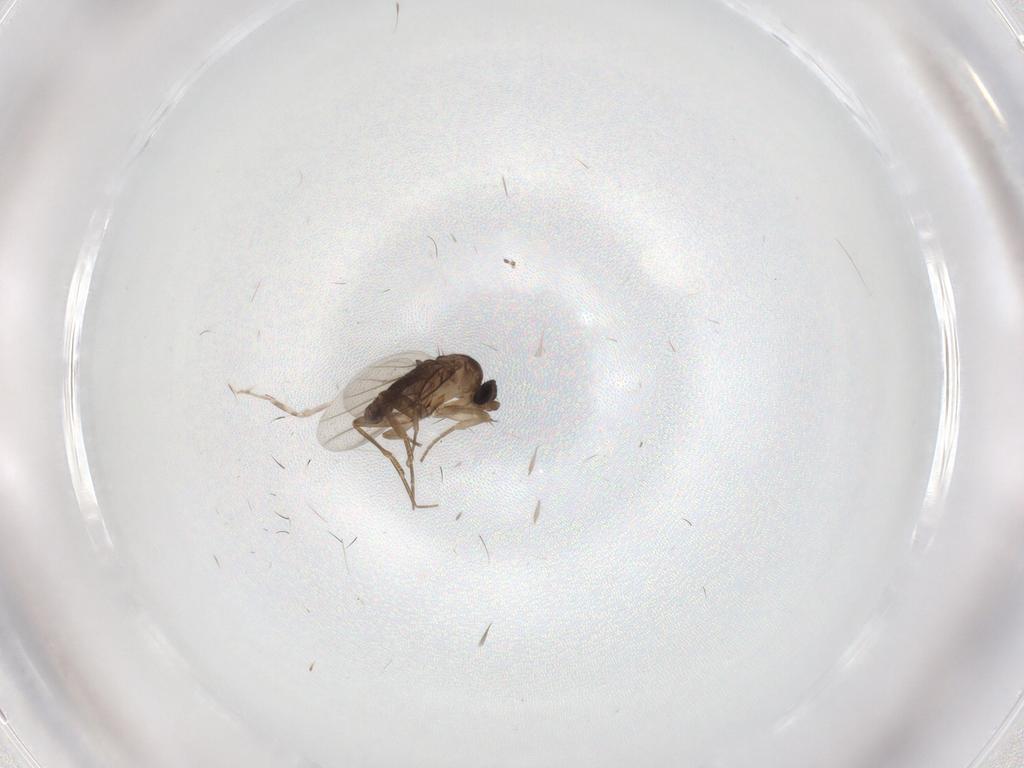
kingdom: Animalia
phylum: Arthropoda
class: Insecta
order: Diptera
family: Phoridae
